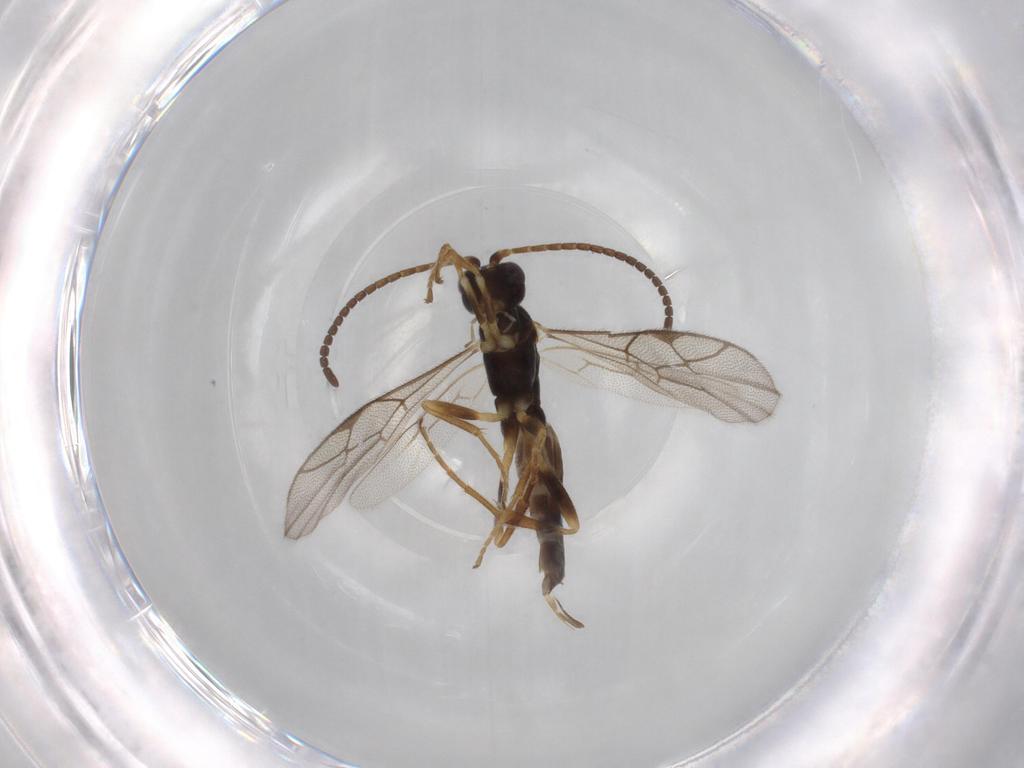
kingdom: Animalia
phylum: Arthropoda
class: Insecta
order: Hymenoptera
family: Ichneumonidae
